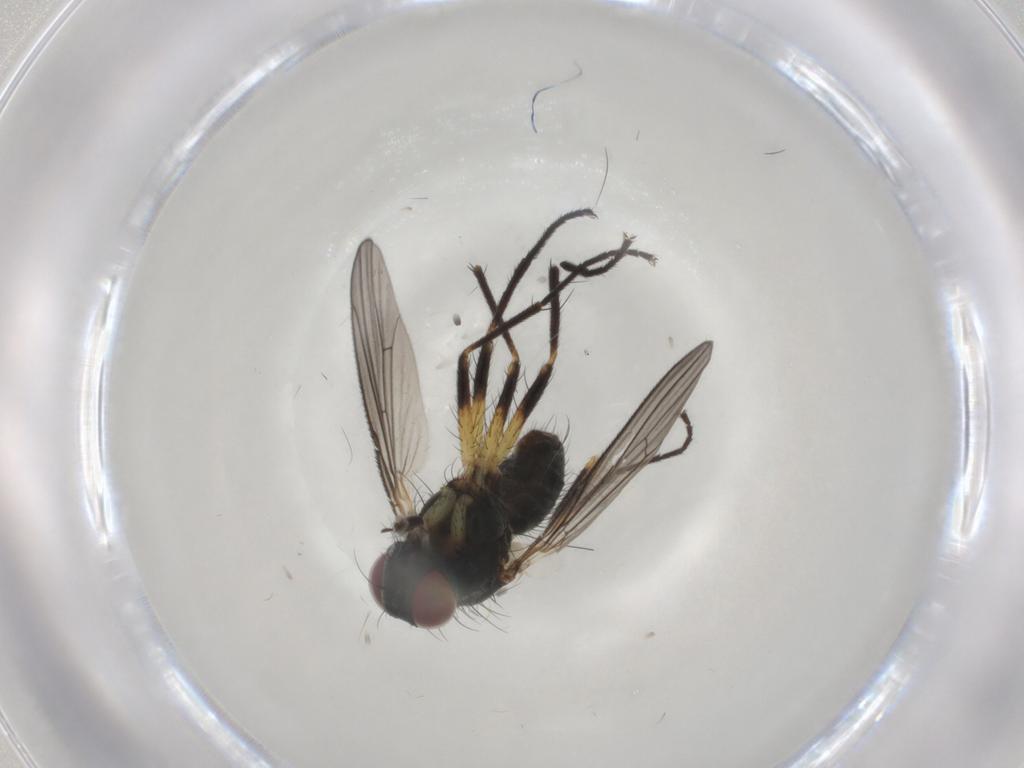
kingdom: Animalia
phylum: Arthropoda
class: Insecta
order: Diptera
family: Muscidae
